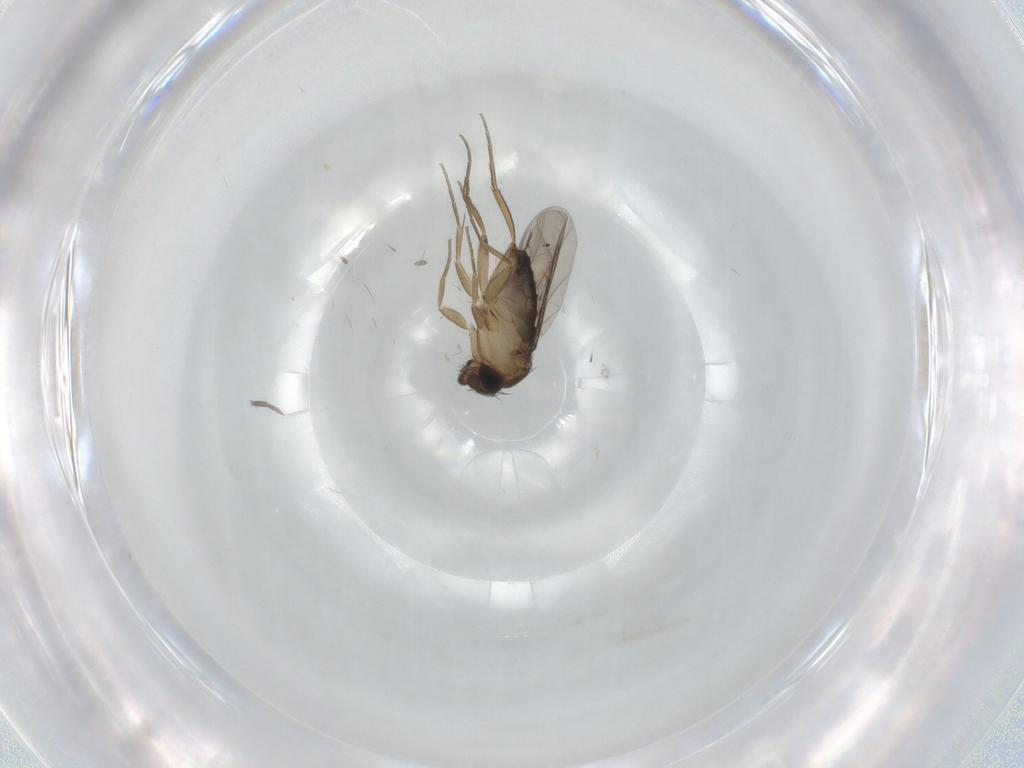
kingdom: Animalia
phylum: Arthropoda
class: Insecta
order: Diptera
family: Phoridae
